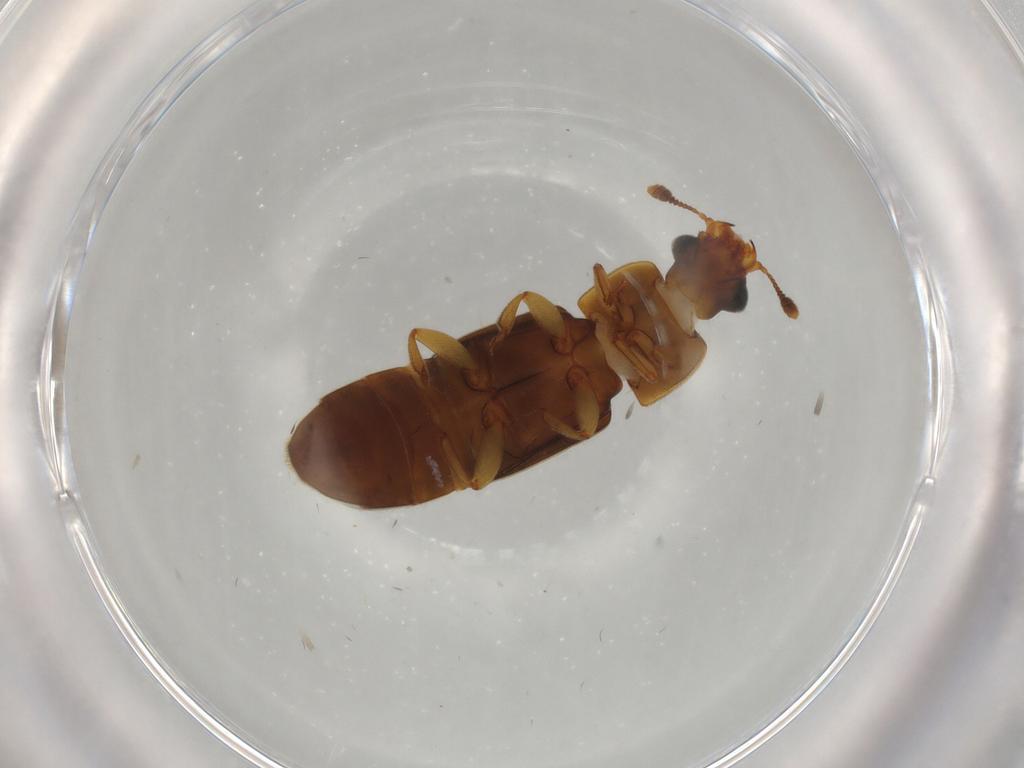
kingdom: Animalia
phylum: Arthropoda
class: Insecta
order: Coleoptera
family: Nitidulidae
